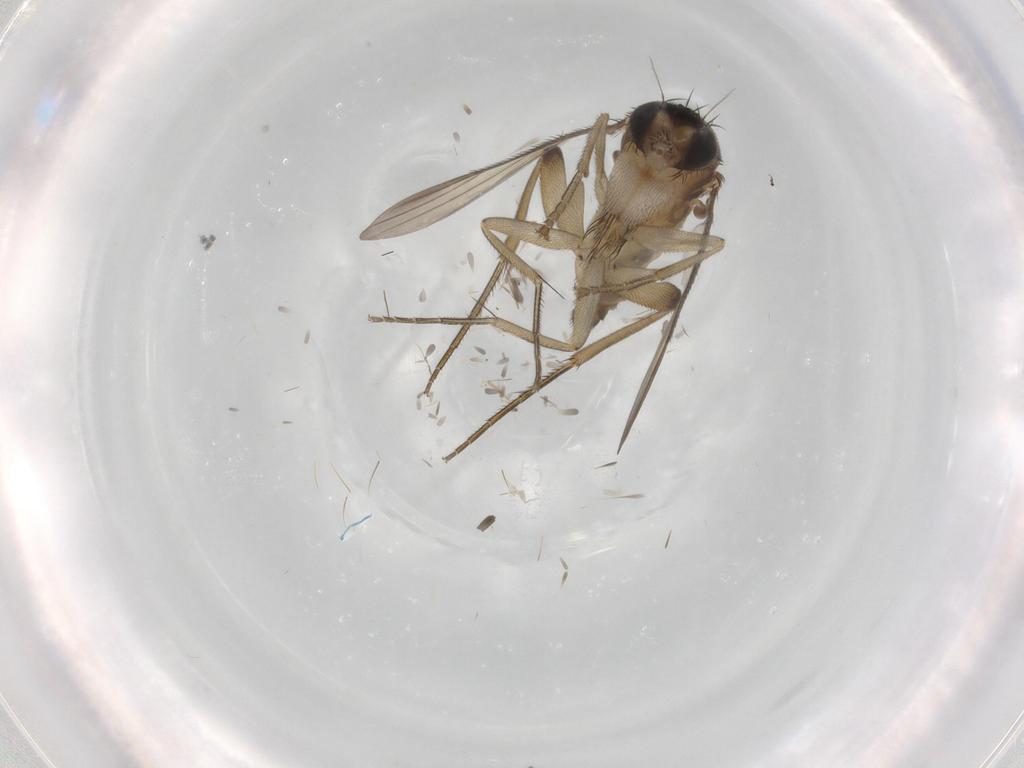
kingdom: Animalia
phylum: Arthropoda
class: Insecta
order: Diptera
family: Phoridae
